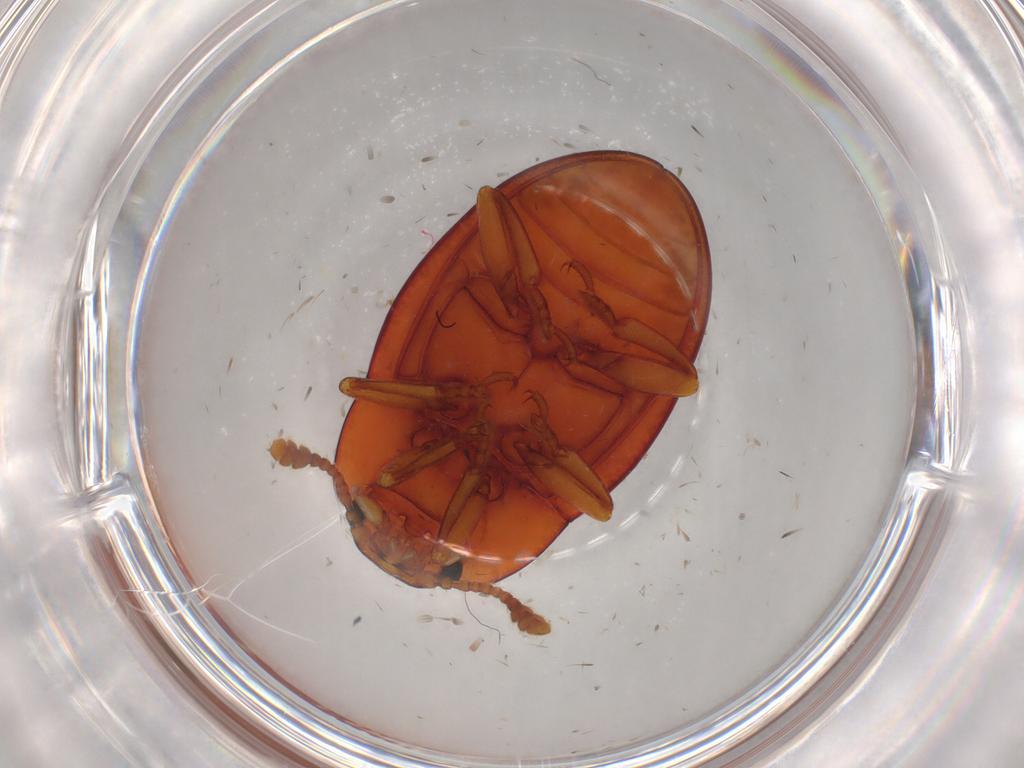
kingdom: Animalia
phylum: Arthropoda
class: Insecta
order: Coleoptera
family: Erotylidae
